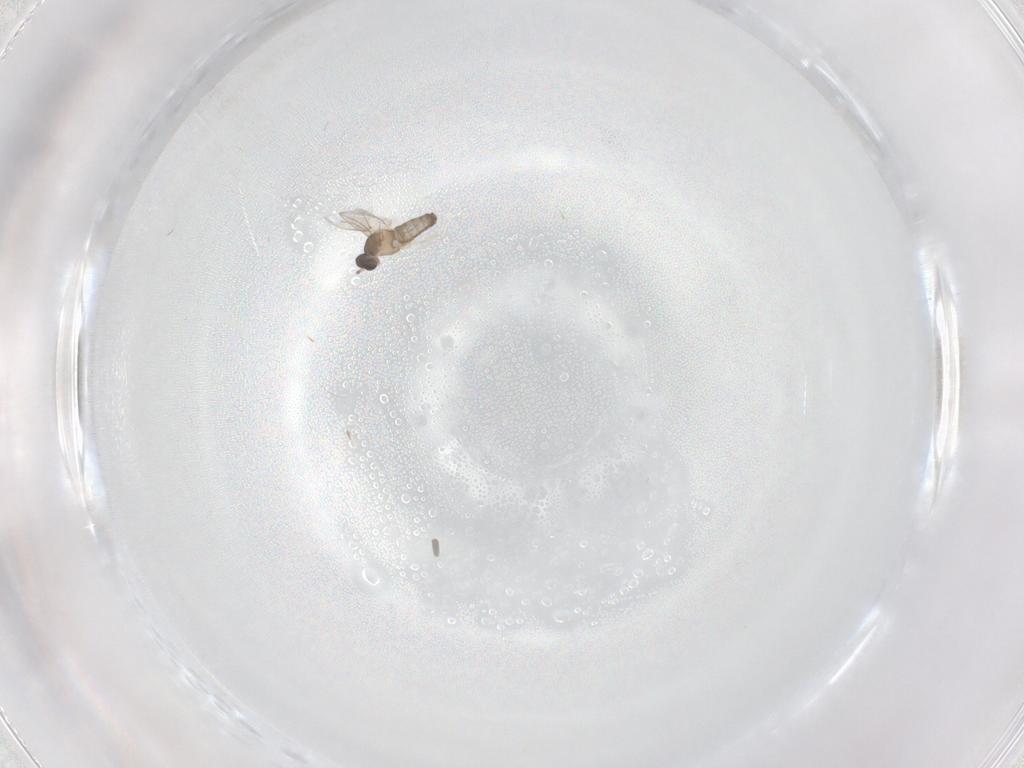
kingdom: Animalia
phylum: Arthropoda
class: Insecta
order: Diptera
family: Cecidomyiidae
